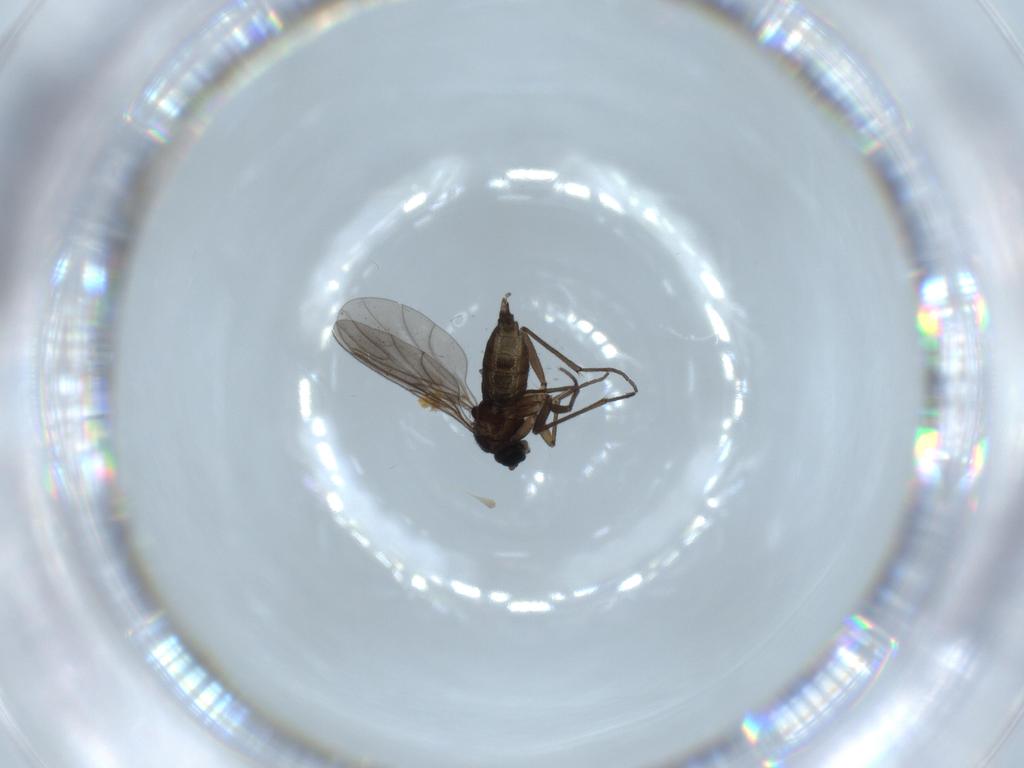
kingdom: Animalia
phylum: Arthropoda
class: Insecta
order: Diptera
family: Sciaridae
